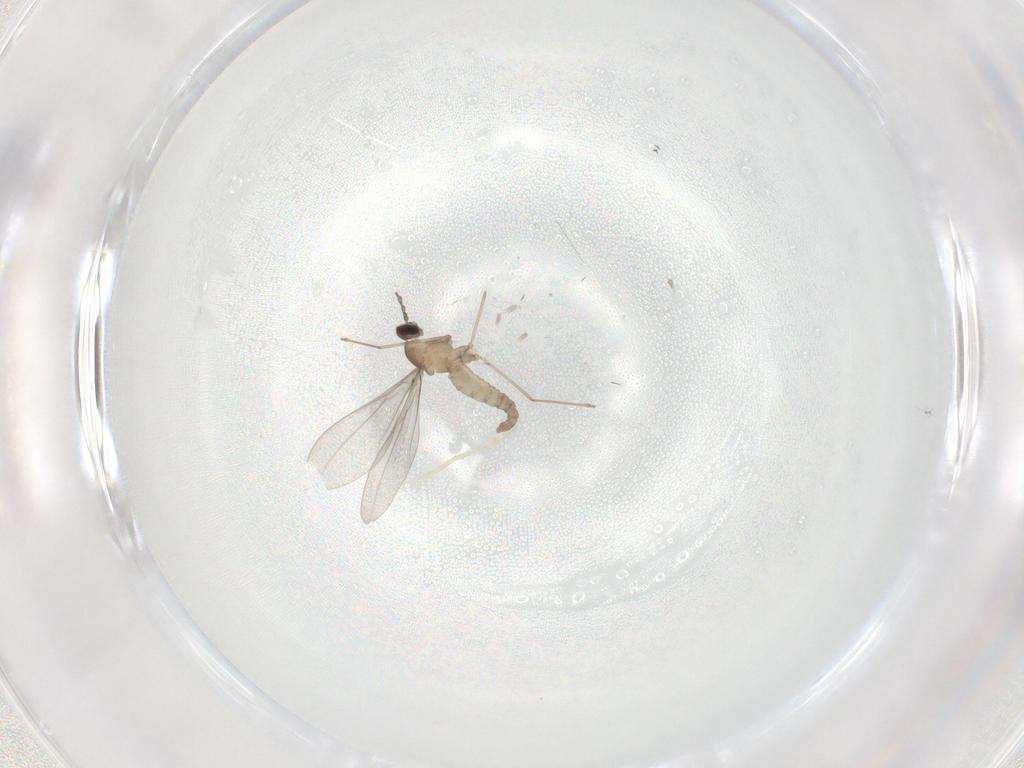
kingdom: Animalia
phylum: Arthropoda
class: Insecta
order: Diptera
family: Cecidomyiidae
